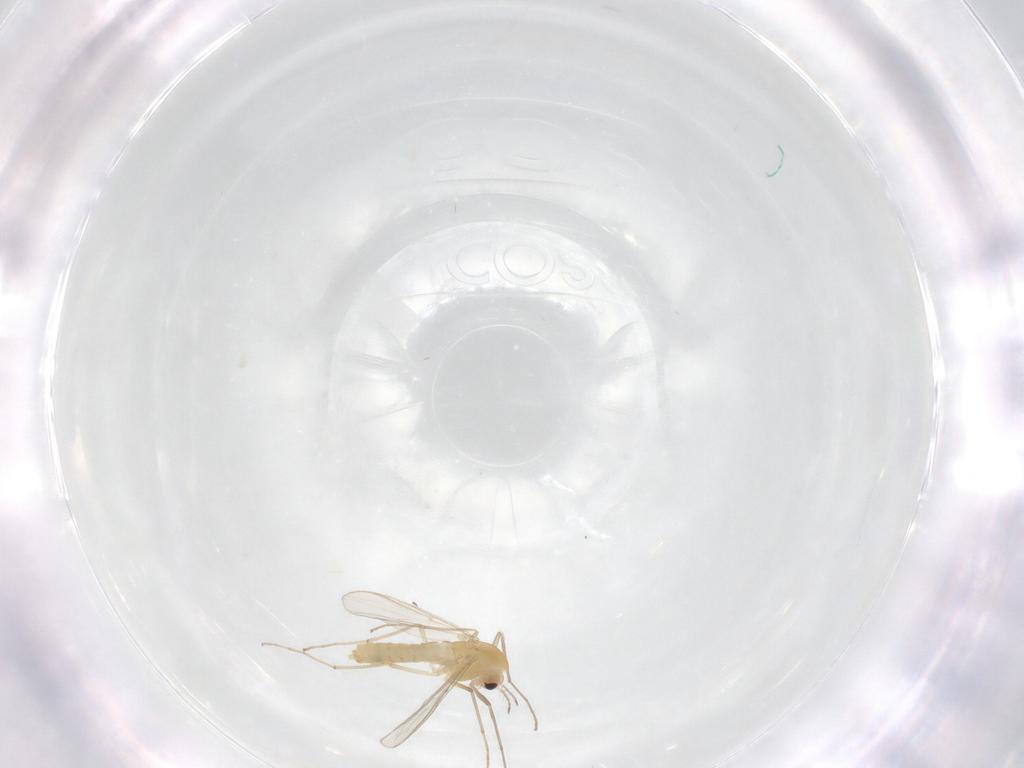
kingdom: Animalia
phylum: Arthropoda
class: Insecta
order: Diptera
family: Chironomidae
